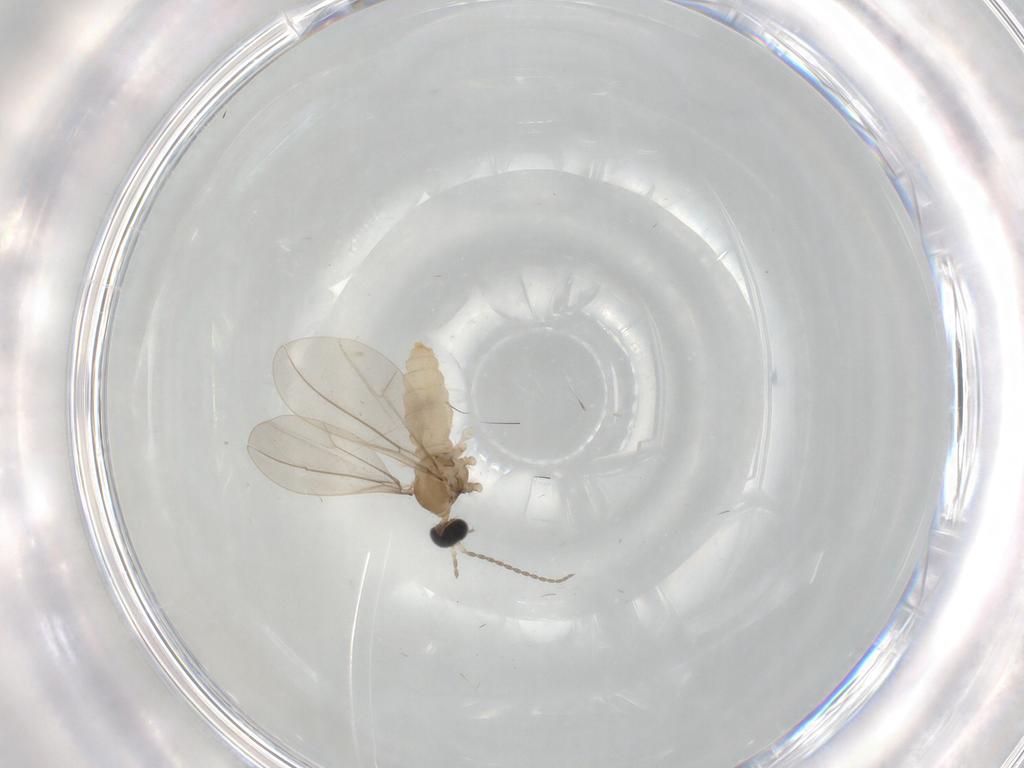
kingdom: Animalia
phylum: Arthropoda
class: Insecta
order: Diptera
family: Cecidomyiidae
